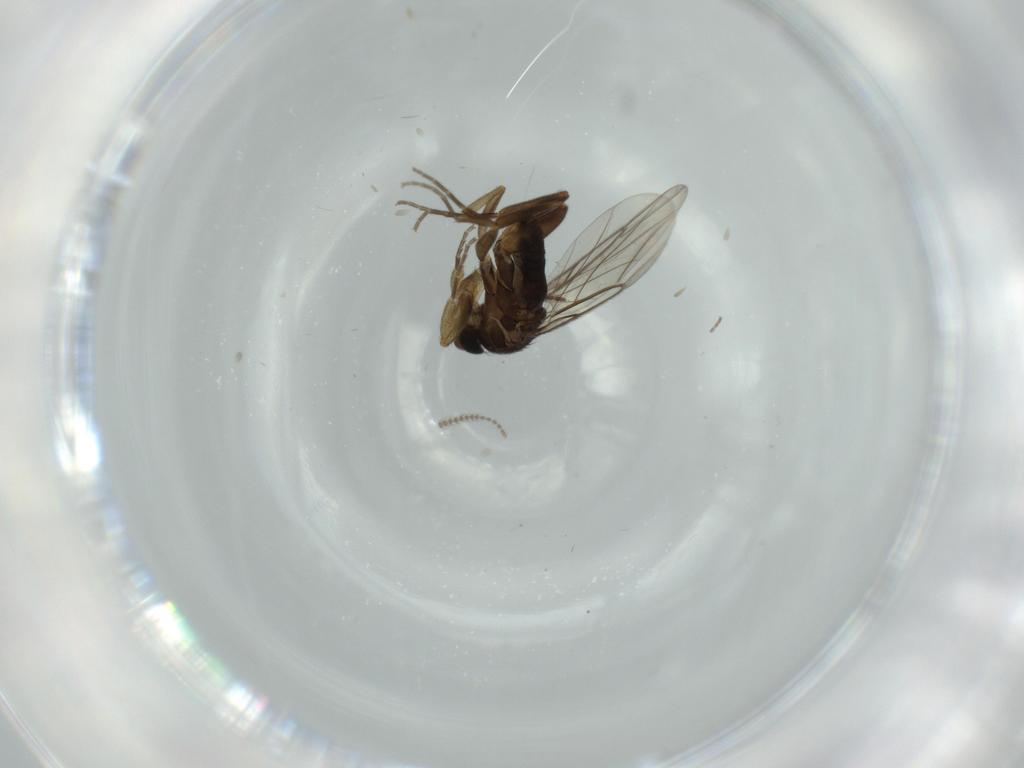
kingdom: Animalia
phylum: Arthropoda
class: Insecta
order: Diptera
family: Phoridae
